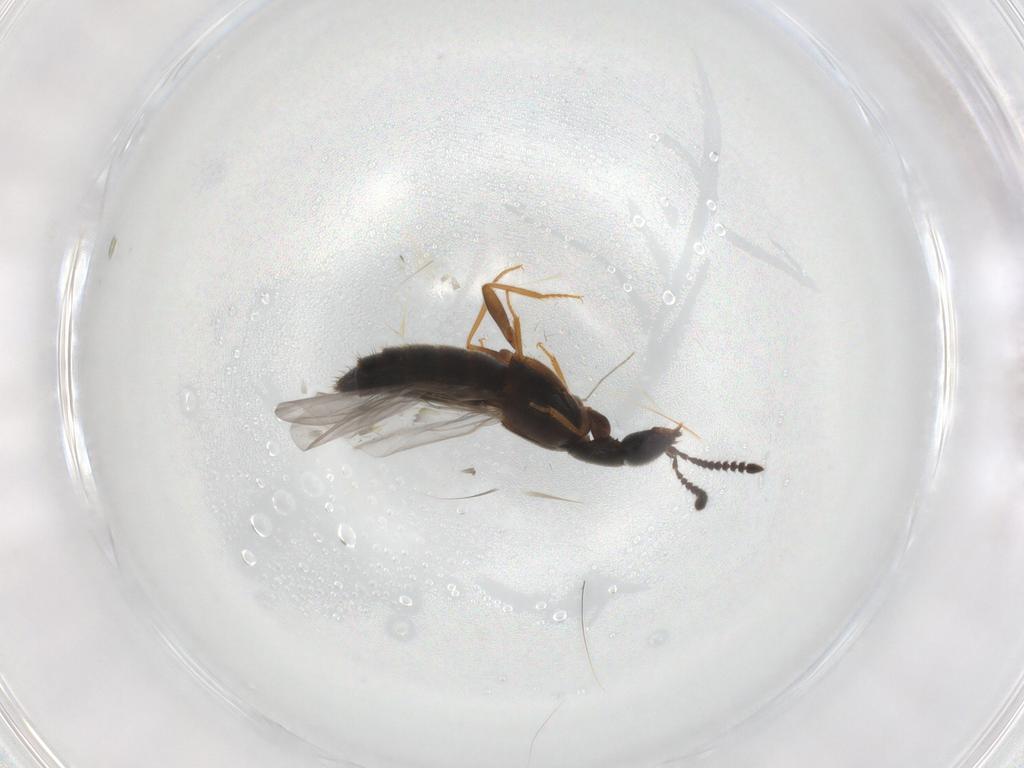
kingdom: Animalia
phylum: Arthropoda
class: Insecta
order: Coleoptera
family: Staphylinidae
